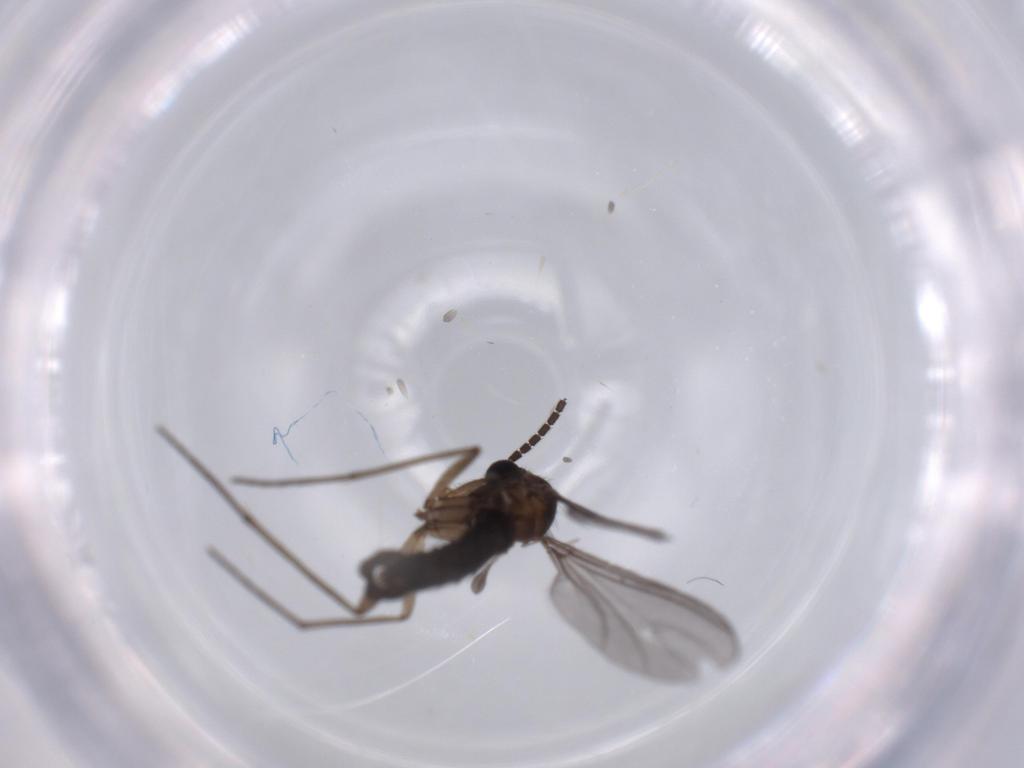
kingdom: Animalia
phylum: Arthropoda
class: Insecta
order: Diptera
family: Sciaridae
